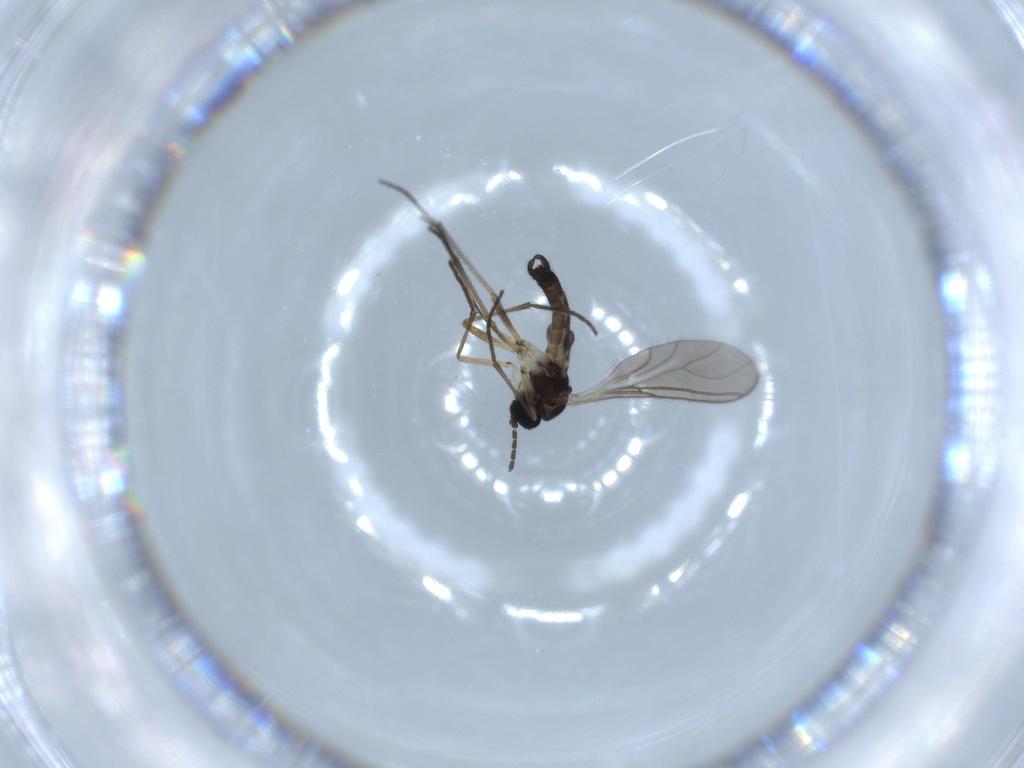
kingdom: Animalia
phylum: Arthropoda
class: Insecta
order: Diptera
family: Sciaridae
